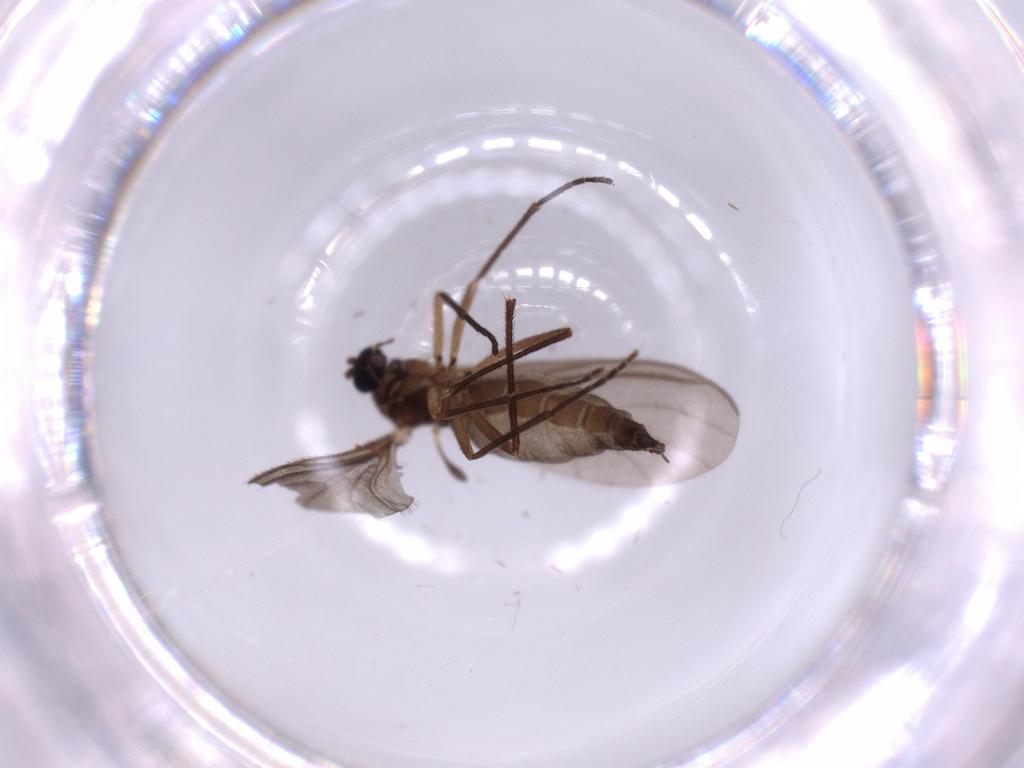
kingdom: Animalia
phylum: Arthropoda
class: Insecta
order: Diptera
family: Sciaridae
